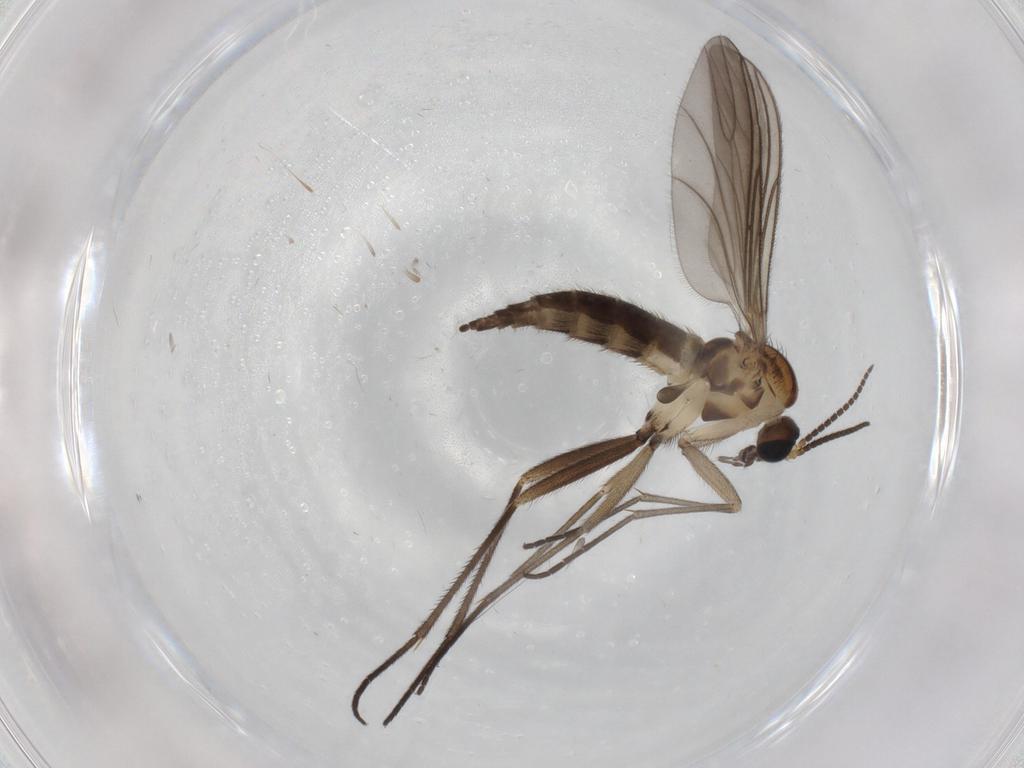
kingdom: Animalia
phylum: Arthropoda
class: Insecta
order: Diptera
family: Sciaridae
